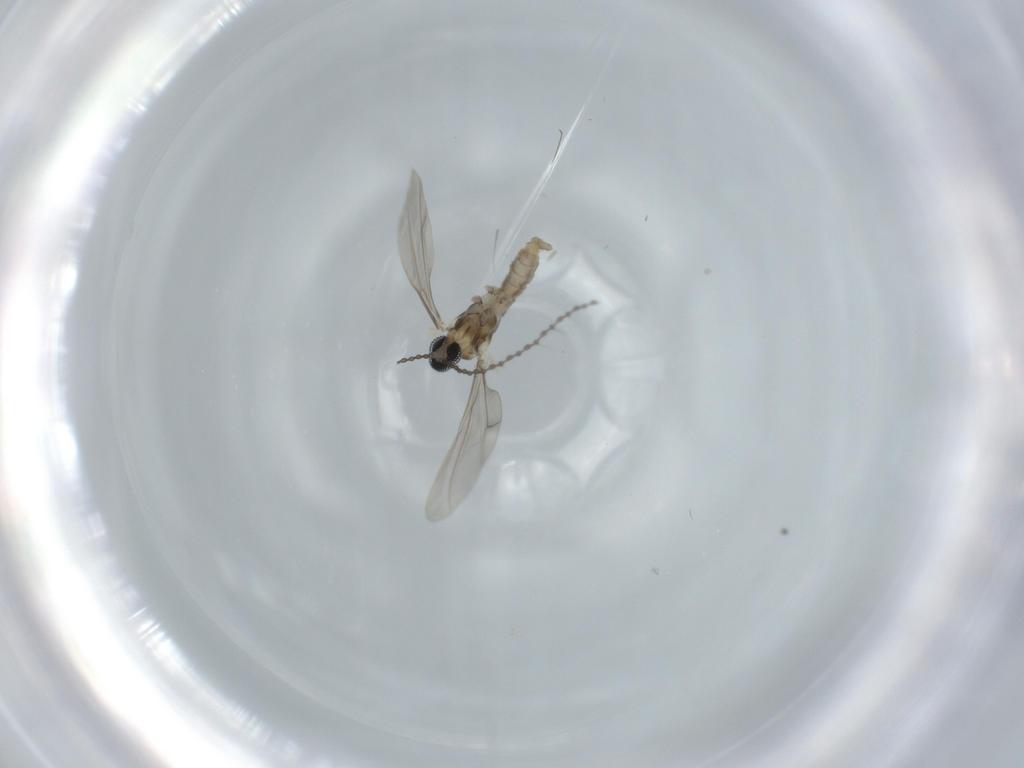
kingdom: Animalia
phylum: Arthropoda
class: Insecta
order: Diptera
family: Cecidomyiidae
